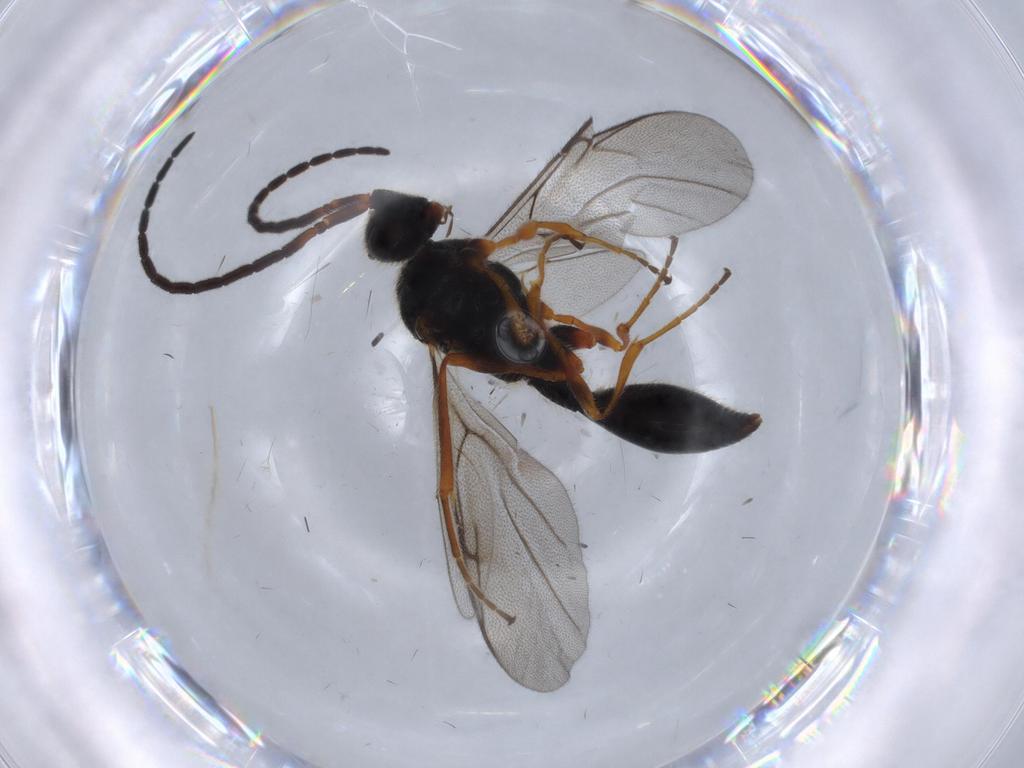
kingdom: Animalia
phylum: Arthropoda
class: Insecta
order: Hymenoptera
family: Diapriidae
